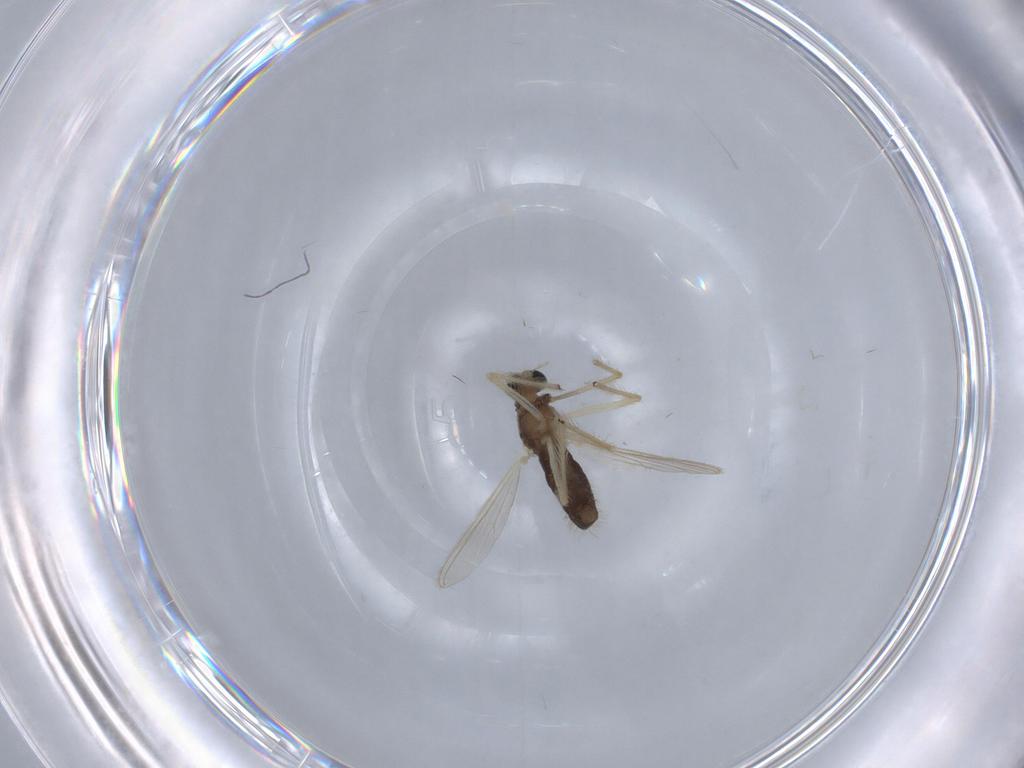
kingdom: Animalia
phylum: Arthropoda
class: Insecta
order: Diptera
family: Chironomidae
